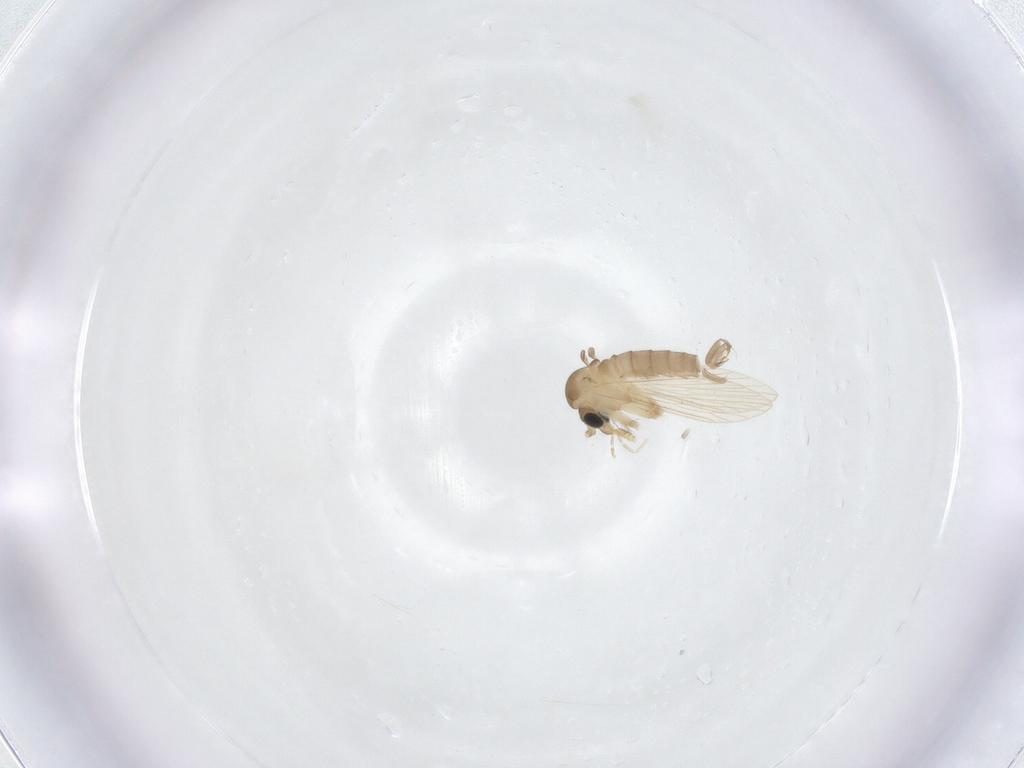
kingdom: Animalia
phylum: Arthropoda
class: Insecta
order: Diptera
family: Psychodidae
